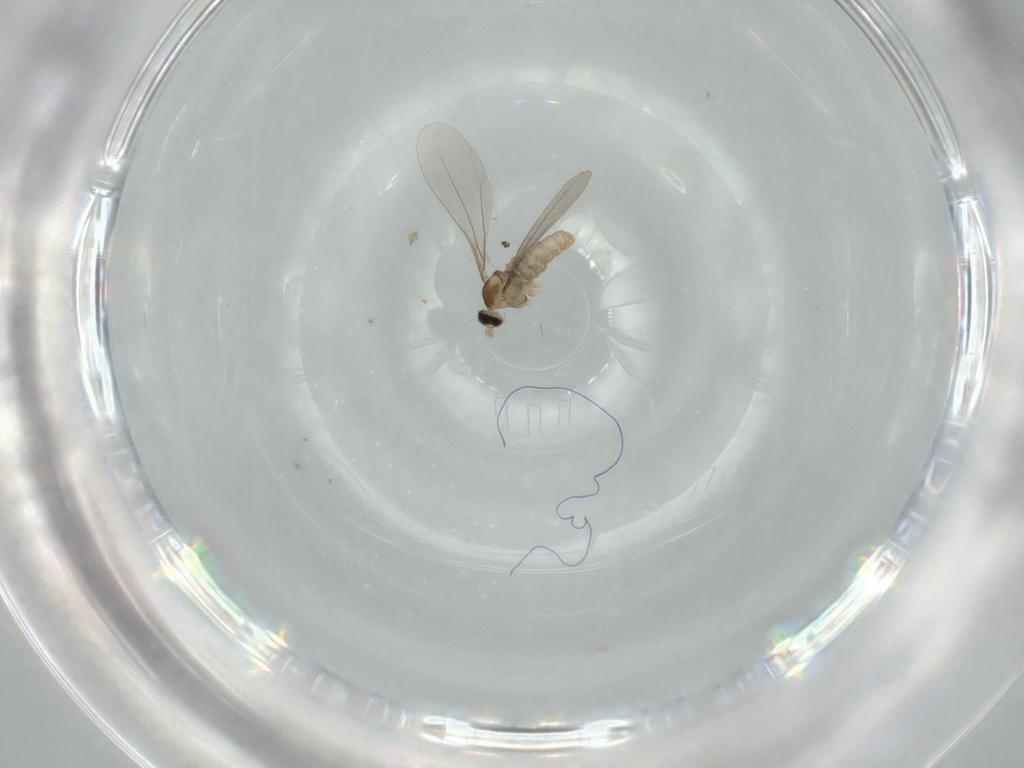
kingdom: Animalia
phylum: Arthropoda
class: Insecta
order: Diptera
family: Cecidomyiidae
